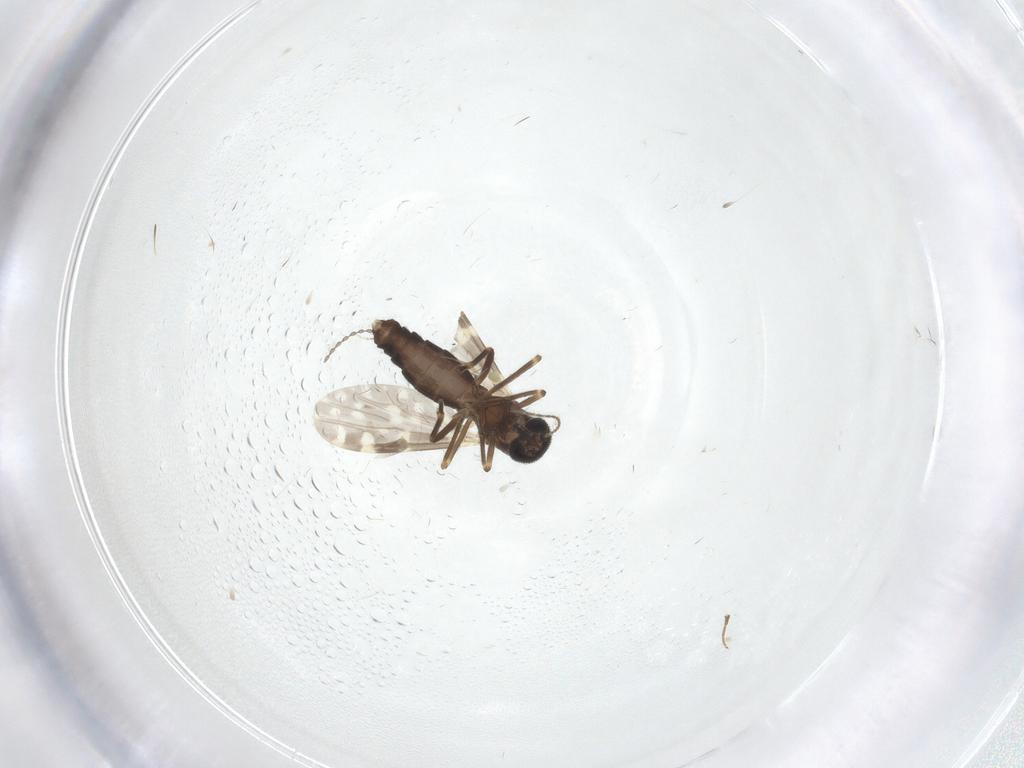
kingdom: Animalia
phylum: Arthropoda
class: Insecta
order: Diptera
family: Ceratopogonidae
